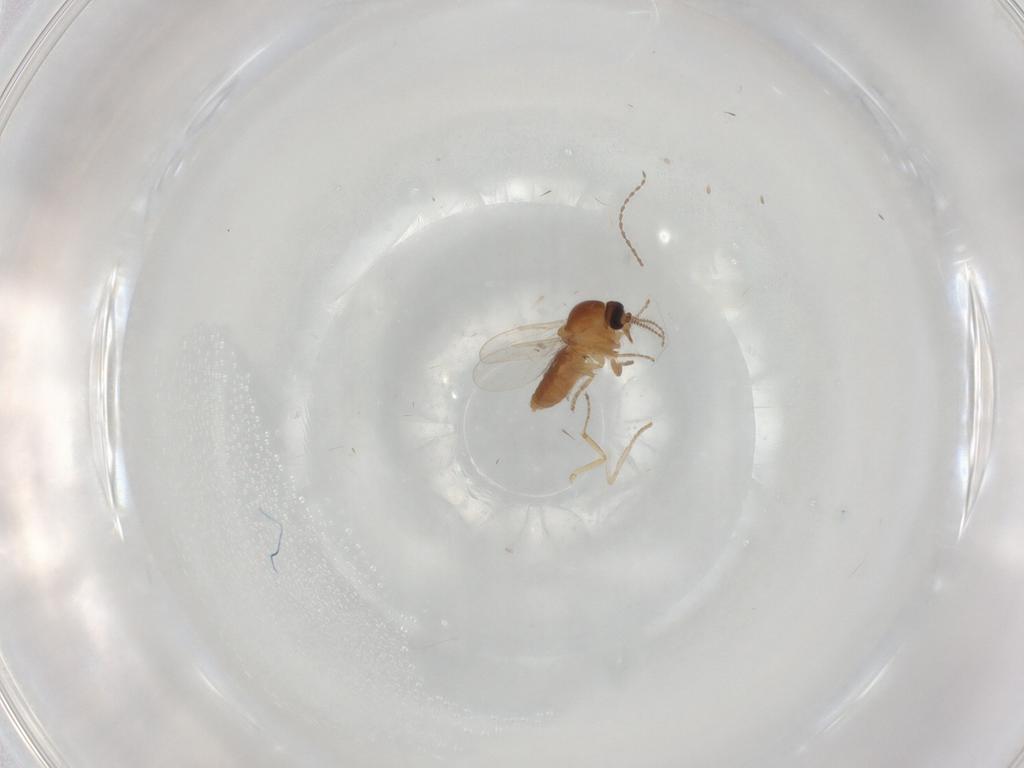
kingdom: Animalia
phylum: Arthropoda
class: Insecta
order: Diptera
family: Ceratopogonidae
